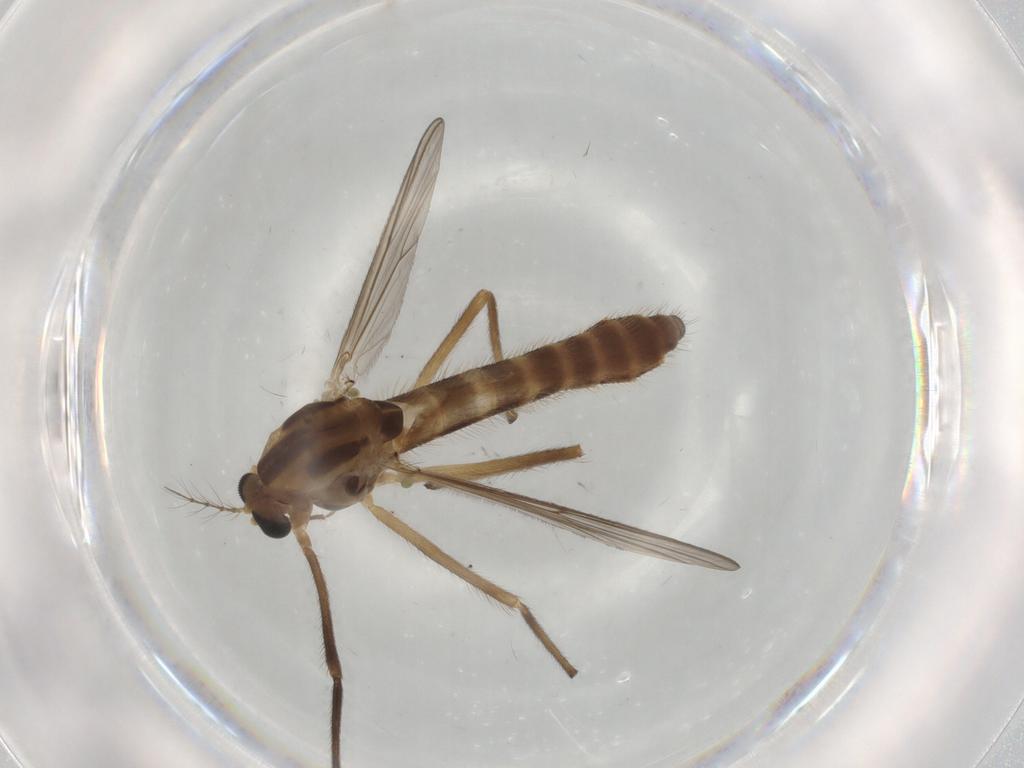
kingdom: Animalia
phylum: Arthropoda
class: Insecta
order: Diptera
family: Chironomidae
